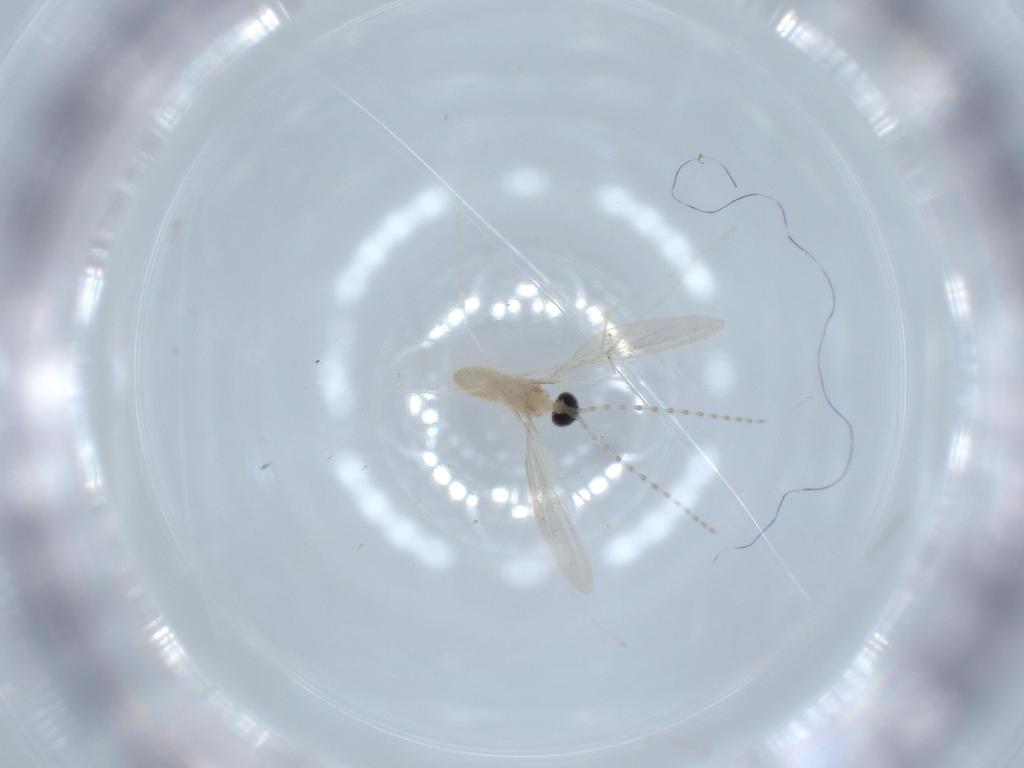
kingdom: Animalia
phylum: Arthropoda
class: Insecta
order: Diptera
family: Cecidomyiidae
